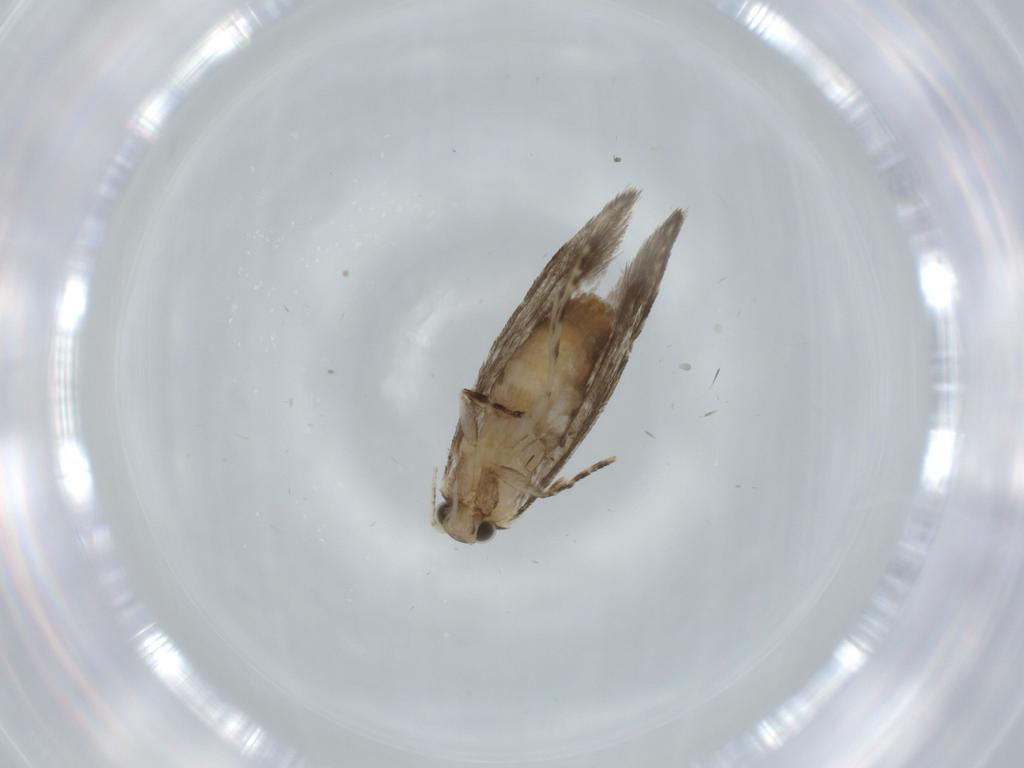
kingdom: Animalia
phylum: Arthropoda
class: Insecta
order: Lepidoptera
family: Tineidae
